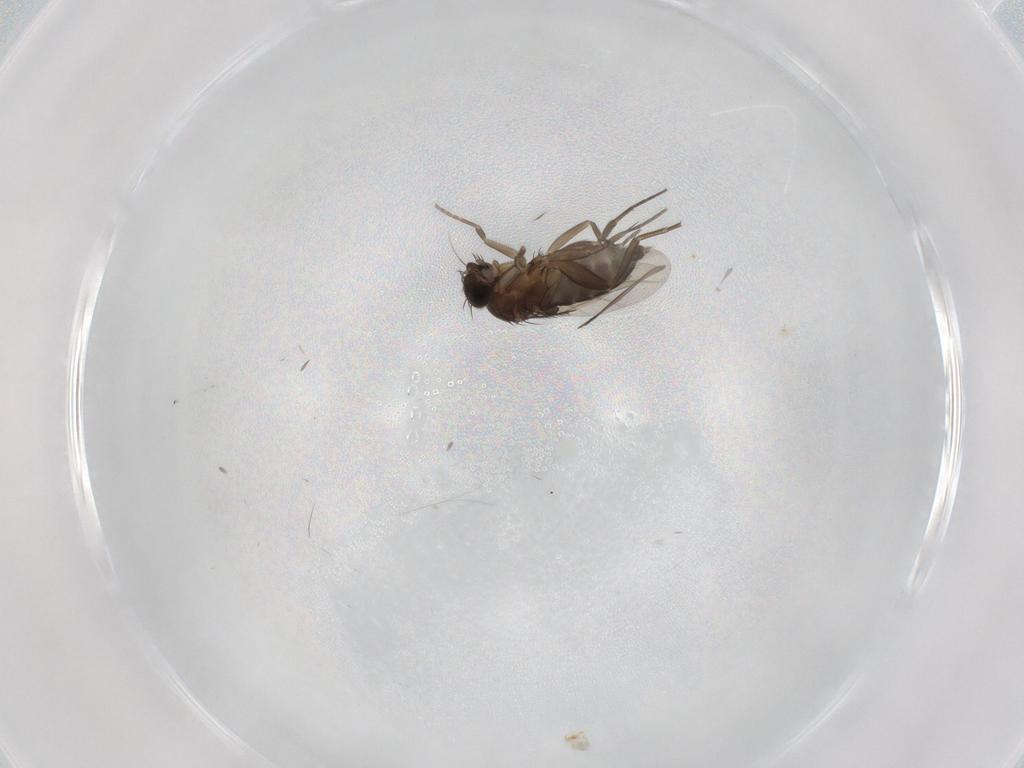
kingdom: Animalia
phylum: Arthropoda
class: Insecta
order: Diptera
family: Phoridae
